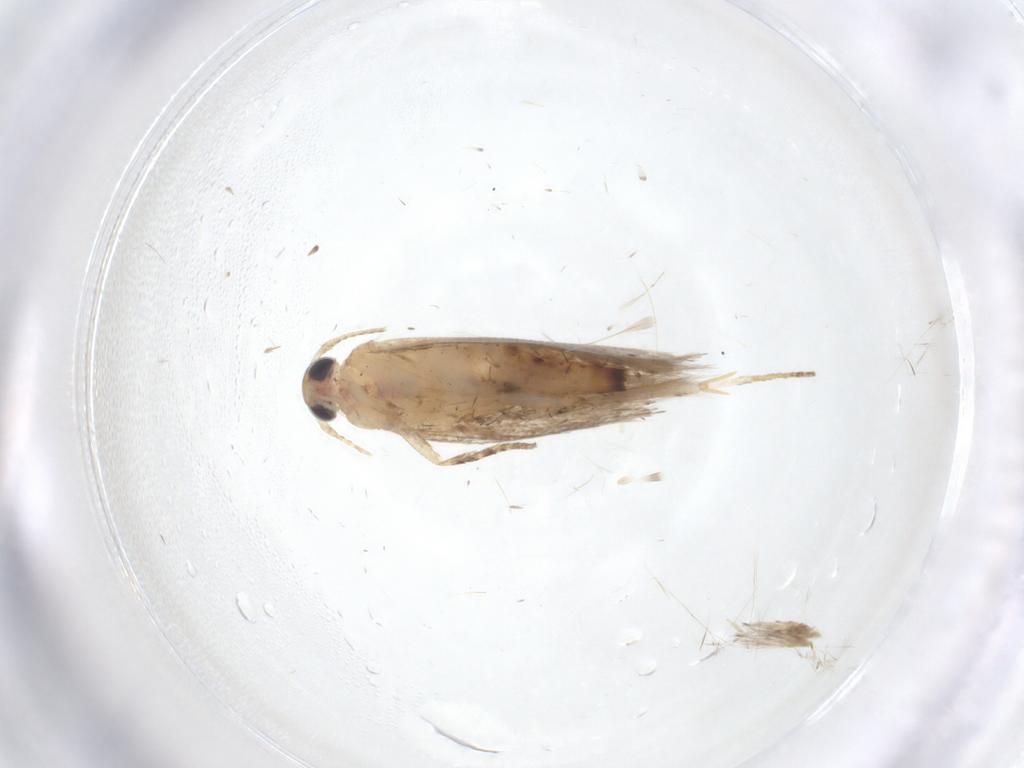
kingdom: Animalia
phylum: Arthropoda
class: Insecta
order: Lepidoptera
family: Gelechiidae
